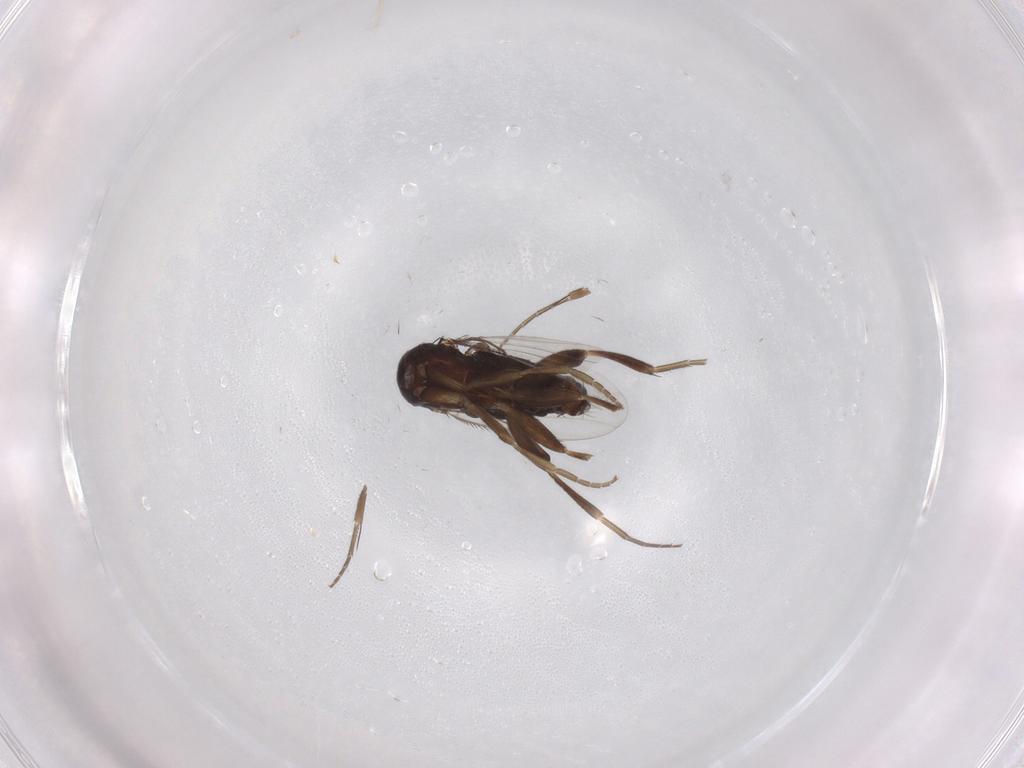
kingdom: Animalia
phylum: Arthropoda
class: Insecta
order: Diptera
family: Phoridae
